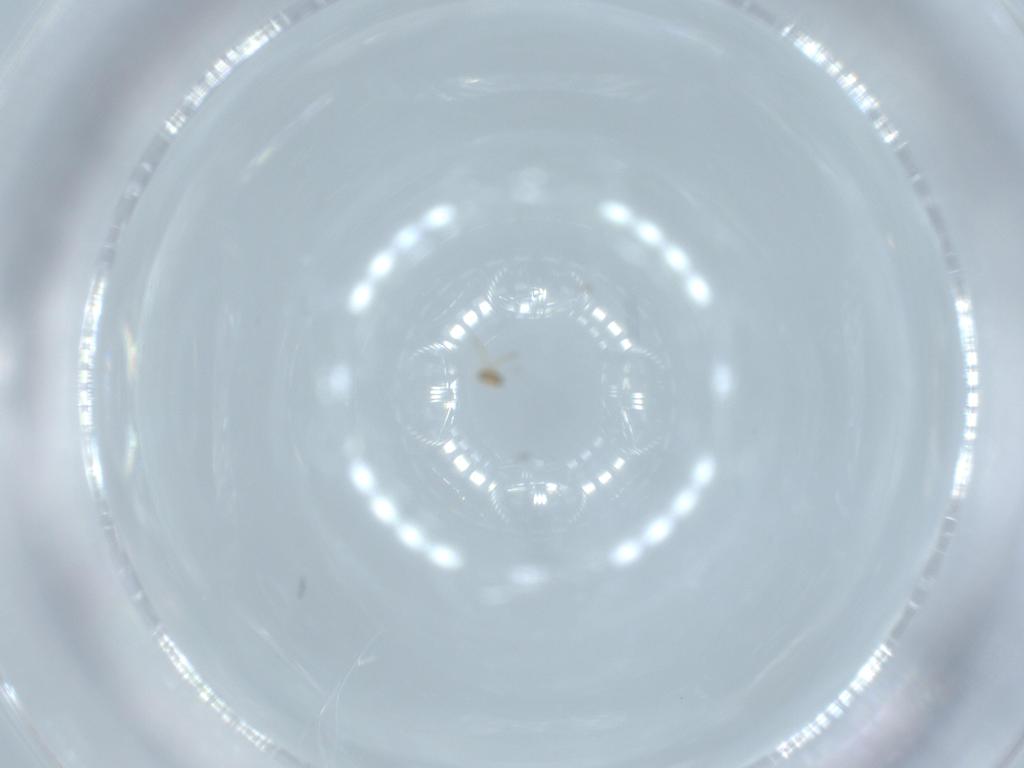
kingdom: Animalia
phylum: Arthropoda
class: Insecta
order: Hymenoptera
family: Aphelinidae
